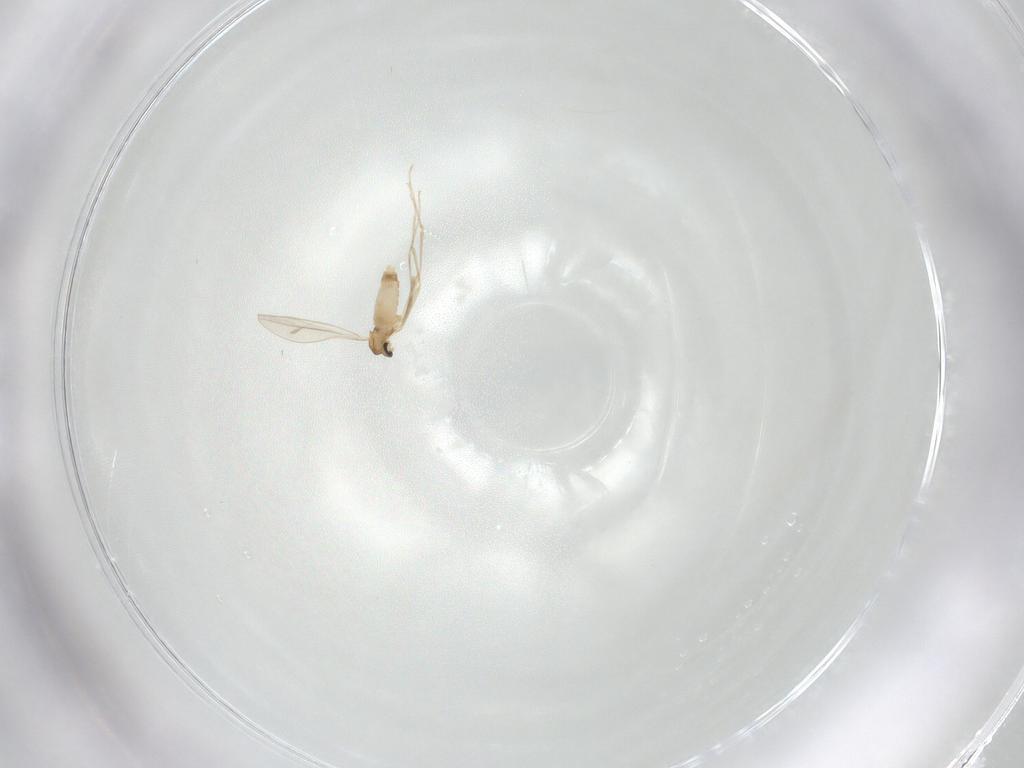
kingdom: Animalia
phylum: Arthropoda
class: Insecta
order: Diptera
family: Cecidomyiidae
